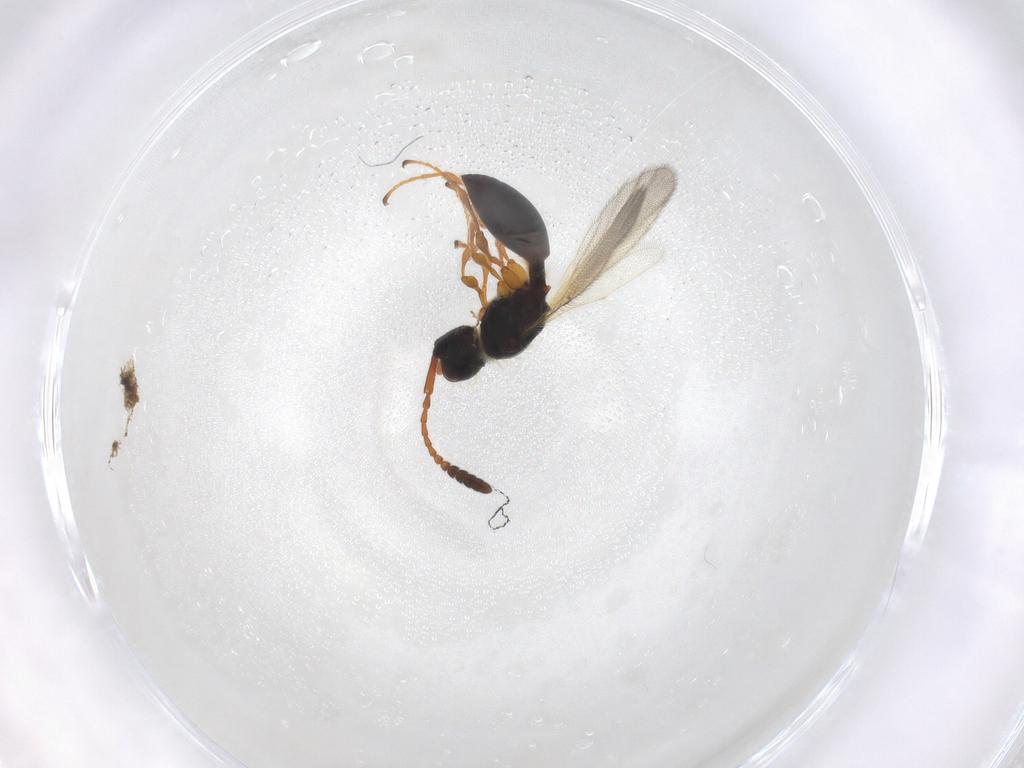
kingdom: Animalia
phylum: Arthropoda
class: Insecta
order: Hymenoptera
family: Diapriidae
